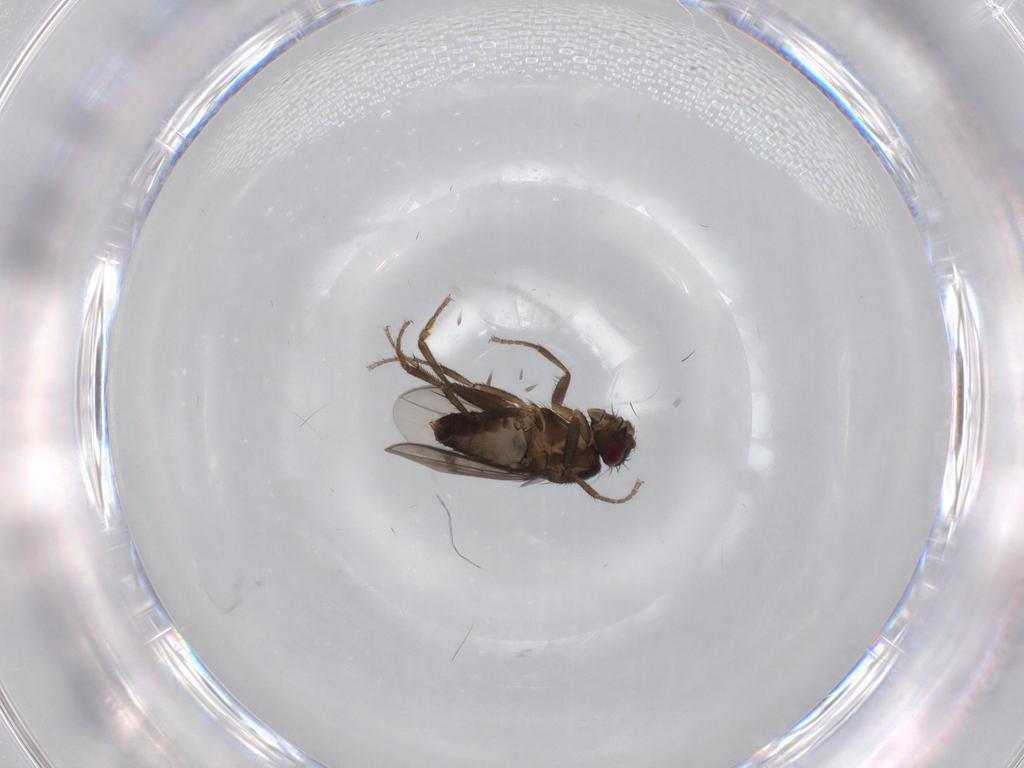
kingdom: Animalia
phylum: Arthropoda
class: Insecta
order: Diptera
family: Limoniidae
